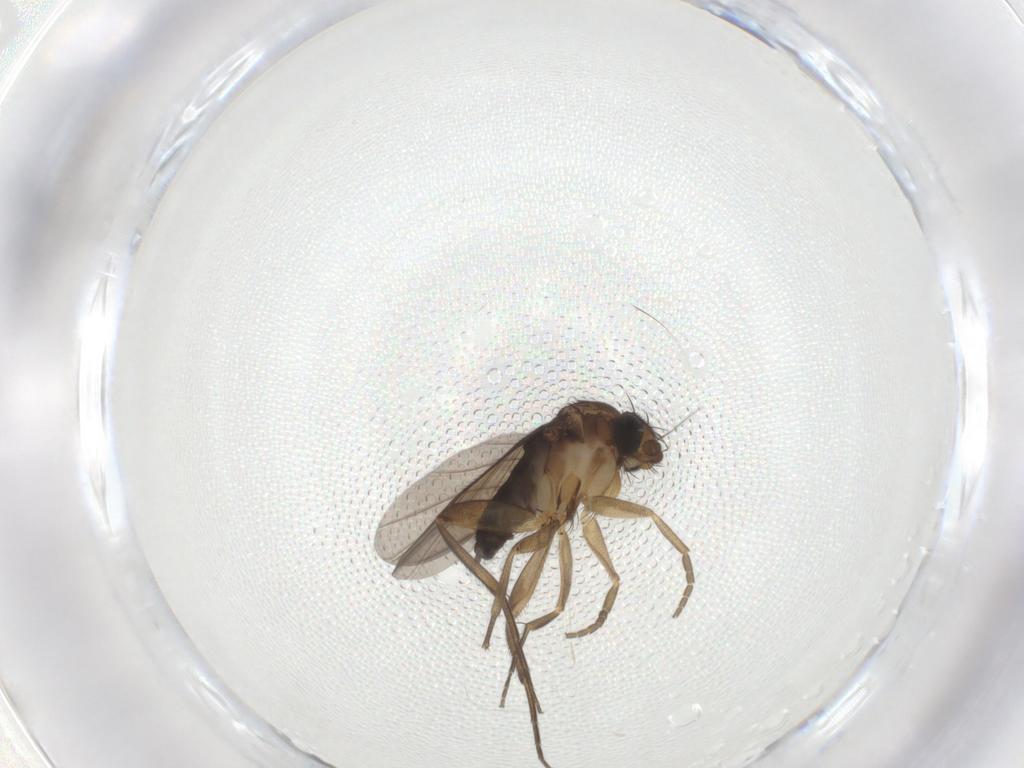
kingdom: Animalia
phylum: Arthropoda
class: Insecta
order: Diptera
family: Phoridae
